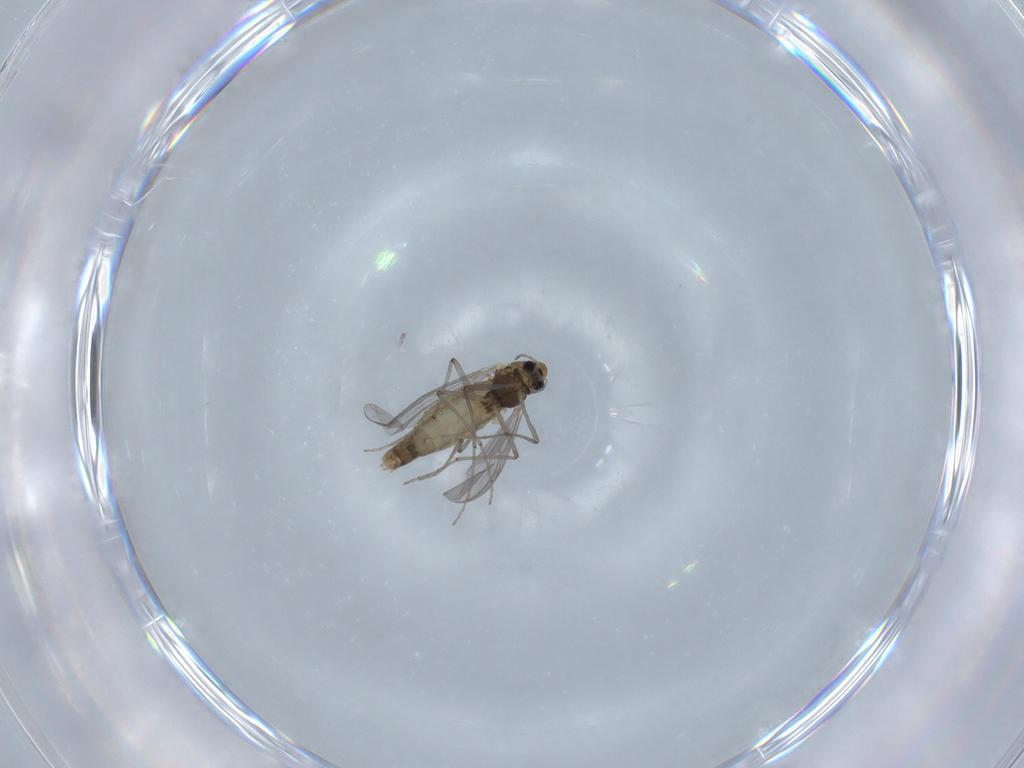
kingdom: Animalia
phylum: Arthropoda
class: Insecta
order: Diptera
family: Chironomidae
